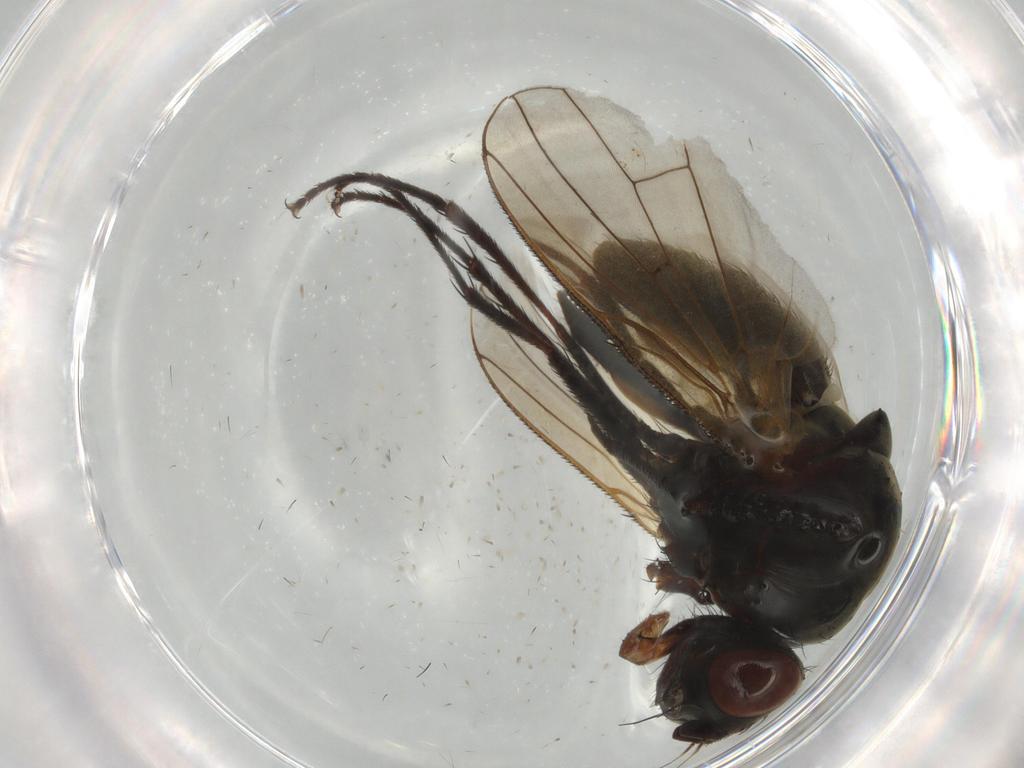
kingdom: Animalia
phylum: Arthropoda
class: Insecta
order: Diptera
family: Anthomyiidae
